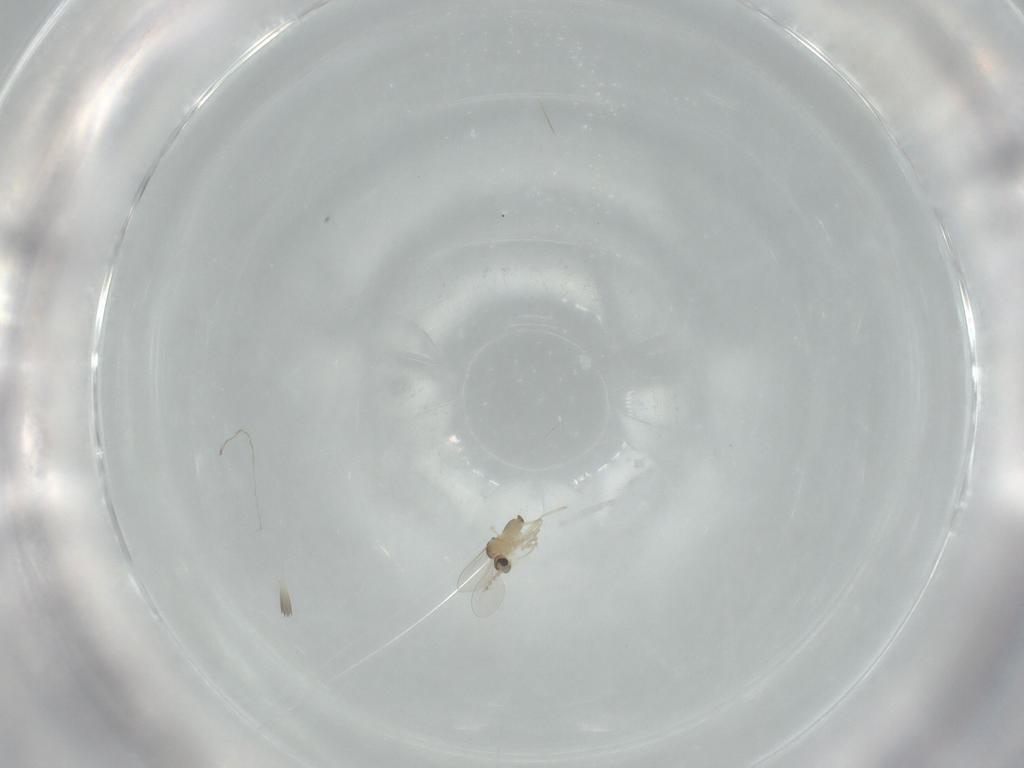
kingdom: Animalia
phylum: Arthropoda
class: Insecta
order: Diptera
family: Cecidomyiidae
